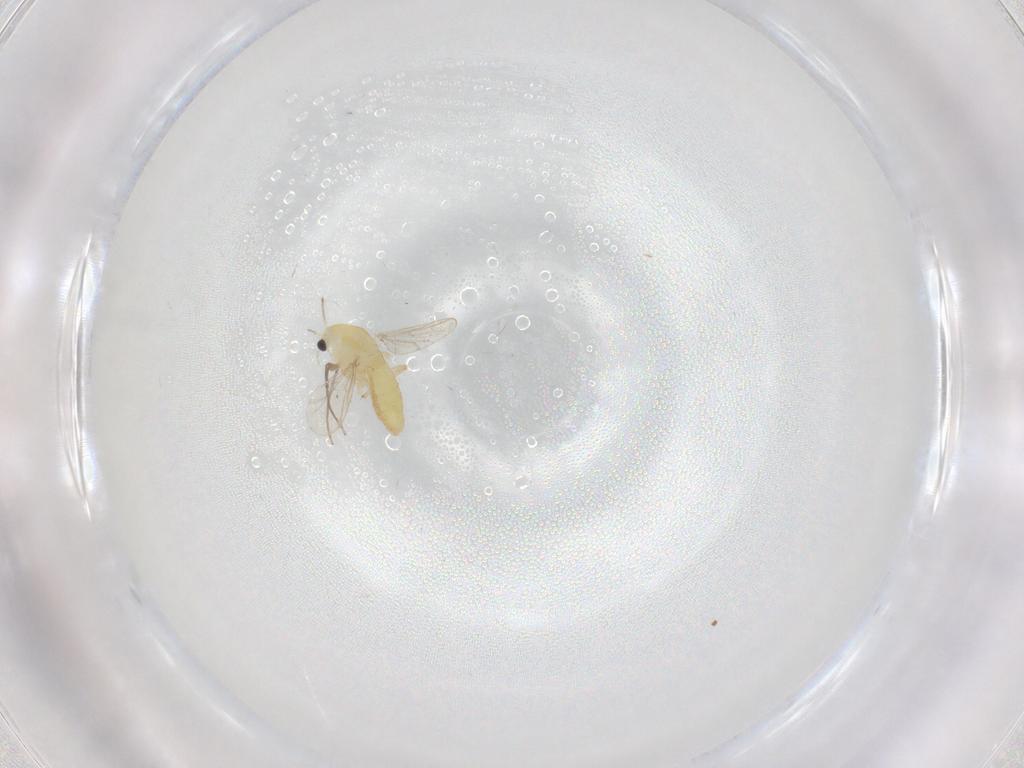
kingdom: Animalia
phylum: Arthropoda
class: Insecta
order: Diptera
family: Chironomidae
